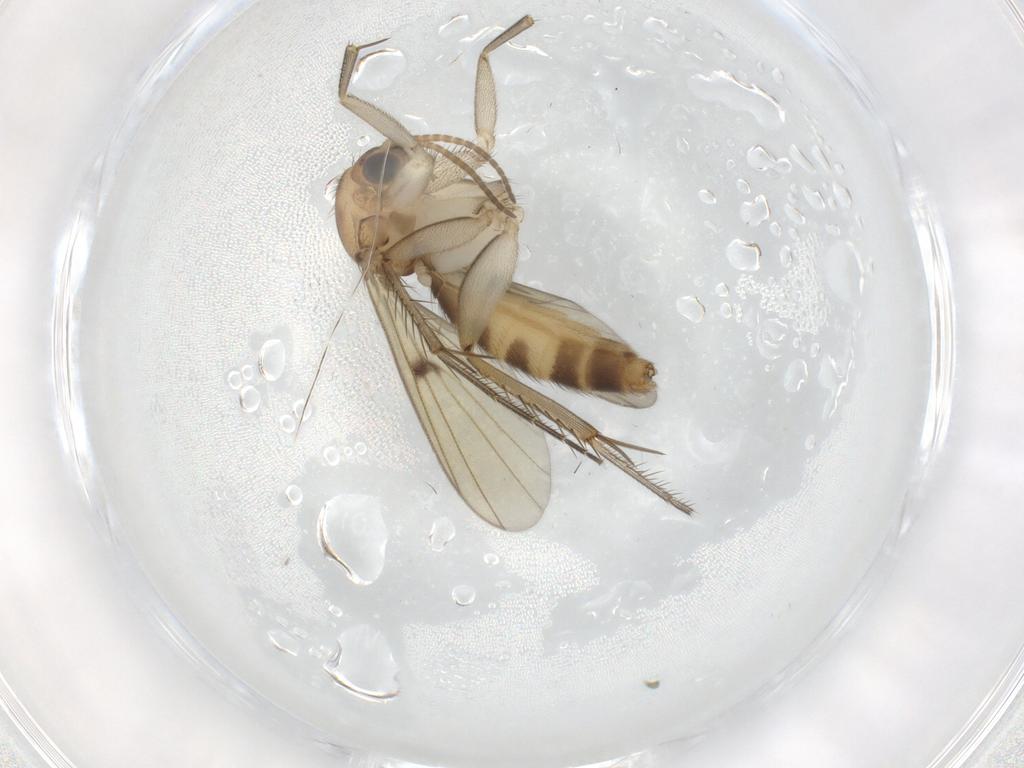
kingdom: Animalia
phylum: Arthropoda
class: Insecta
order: Diptera
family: Psychodidae
